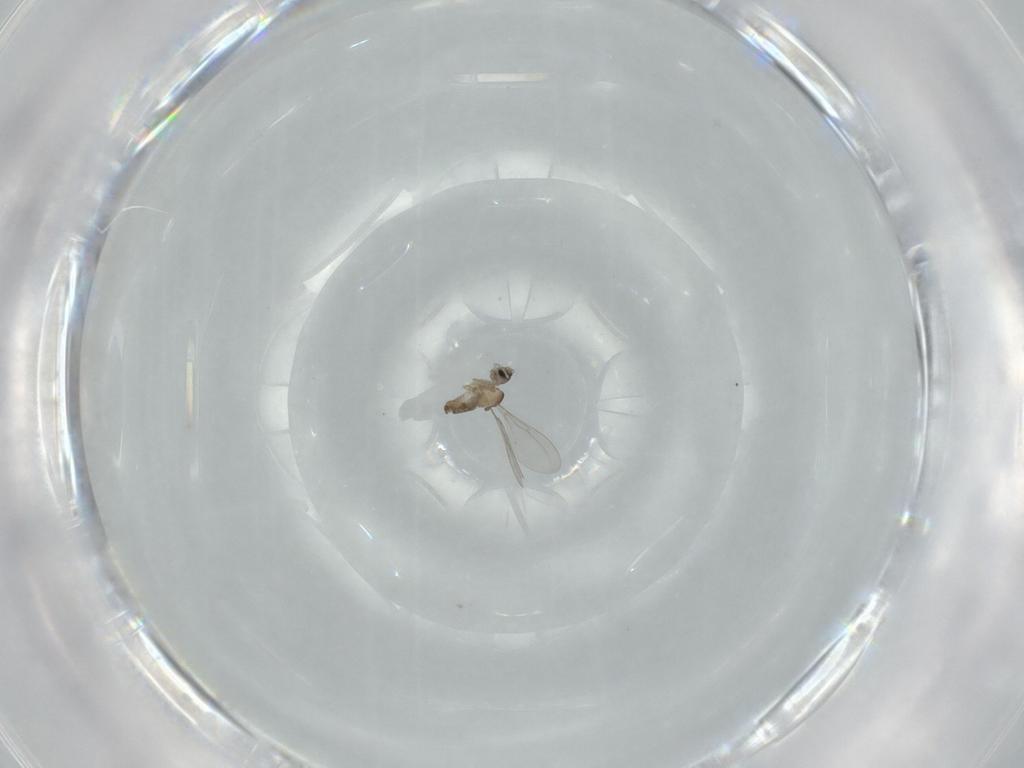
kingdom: Animalia
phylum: Arthropoda
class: Insecta
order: Diptera
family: Cecidomyiidae
